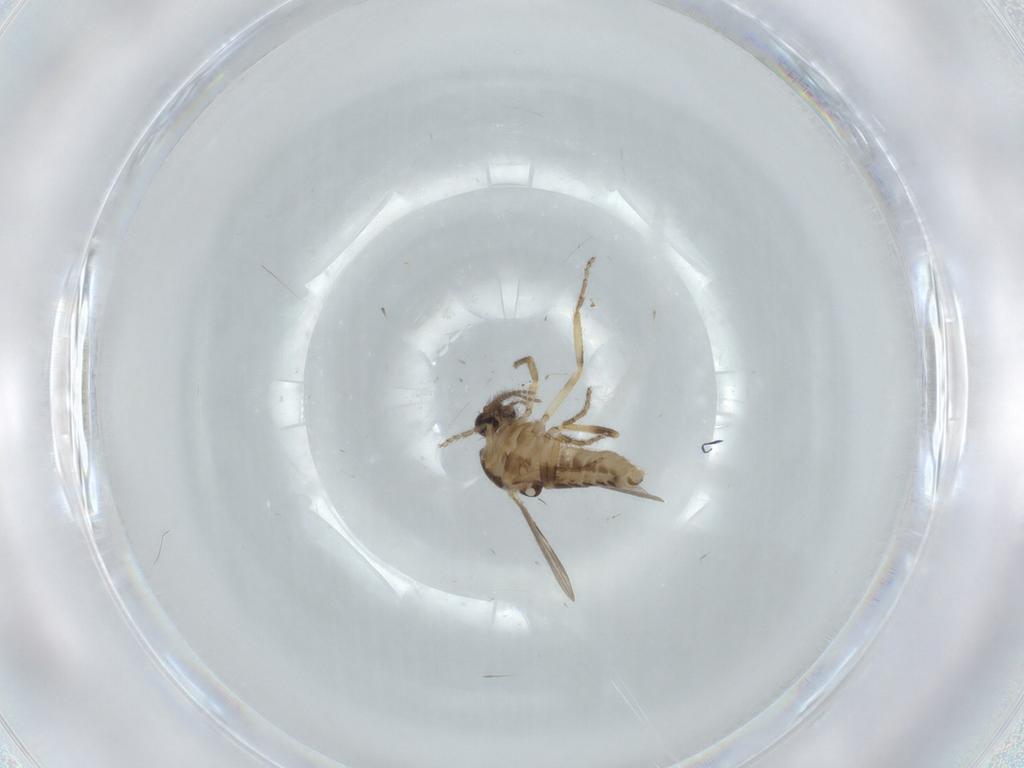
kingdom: Animalia
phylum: Arthropoda
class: Insecta
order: Diptera
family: Ceratopogonidae
